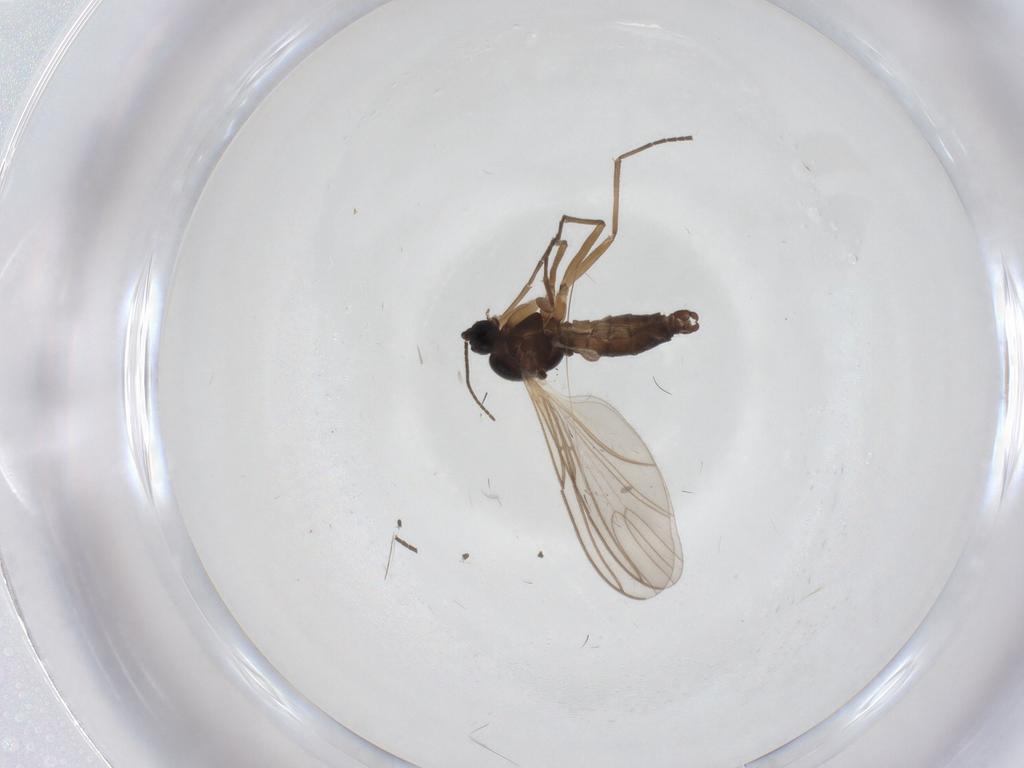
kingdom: Animalia
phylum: Arthropoda
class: Insecta
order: Diptera
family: Sciaridae
